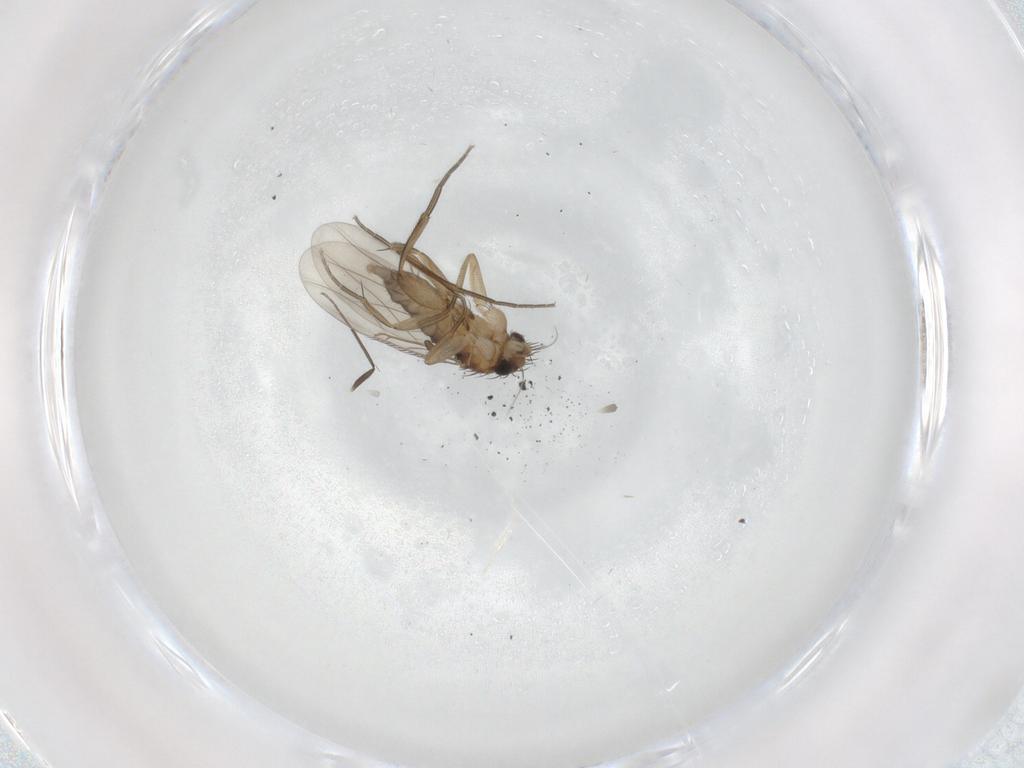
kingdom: Animalia
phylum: Arthropoda
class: Insecta
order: Diptera
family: Phoridae
